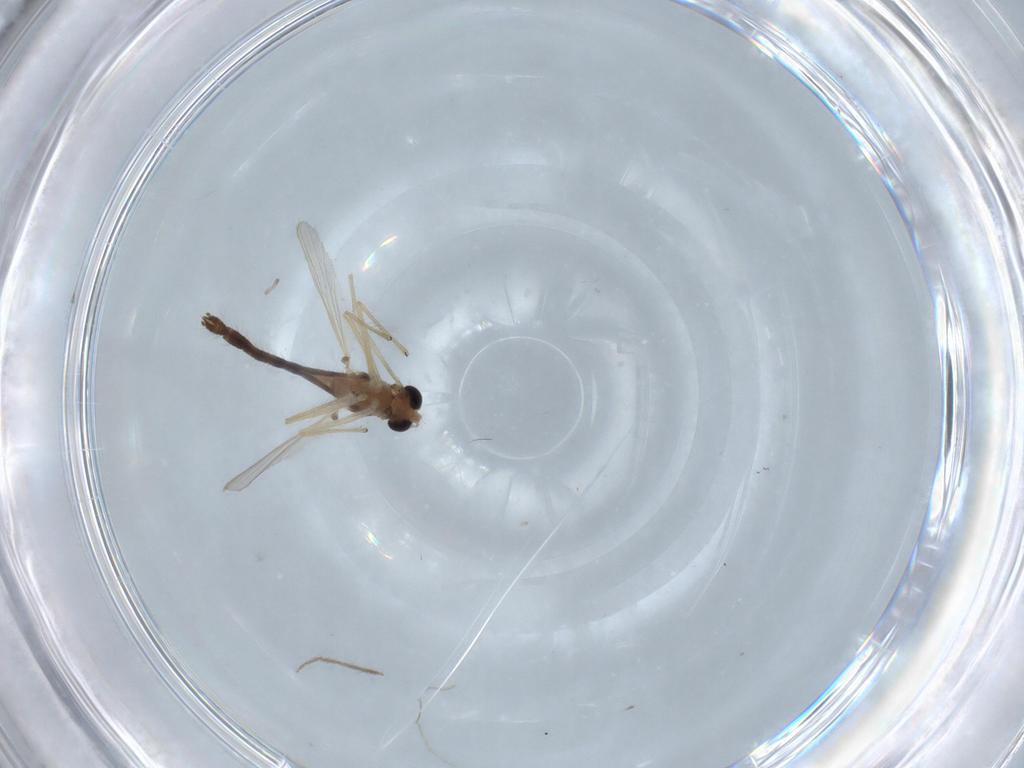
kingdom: Animalia
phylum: Arthropoda
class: Insecta
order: Diptera
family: Chironomidae
